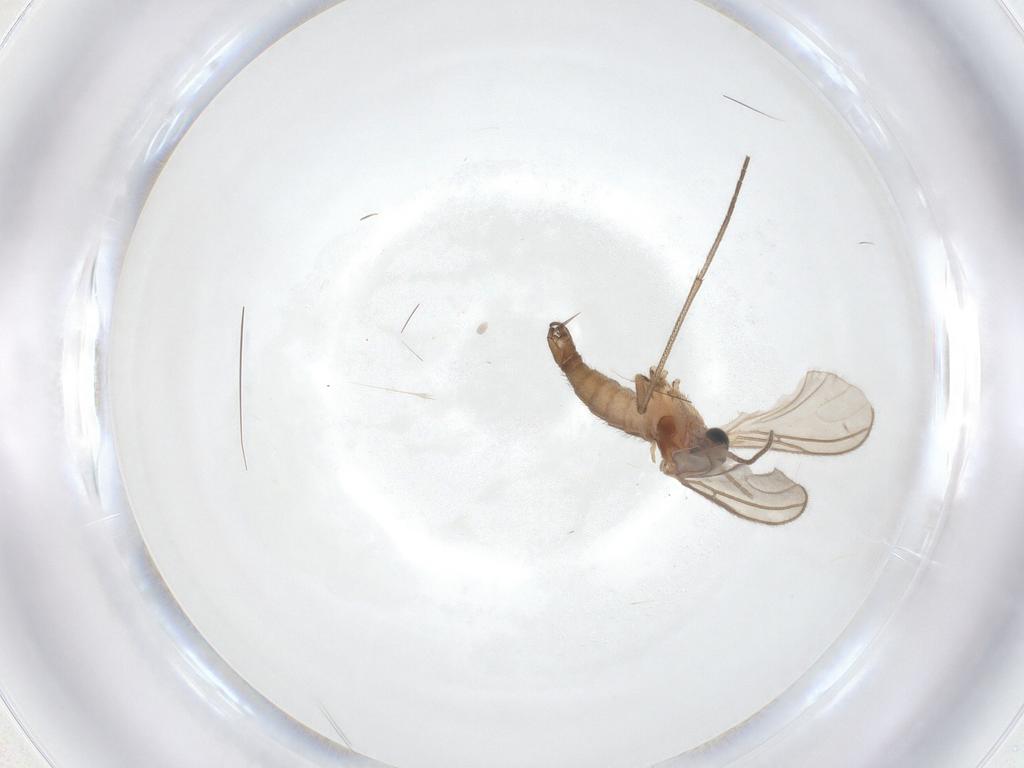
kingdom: Animalia
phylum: Arthropoda
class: Insecta
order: Diptera
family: Sciaridae
